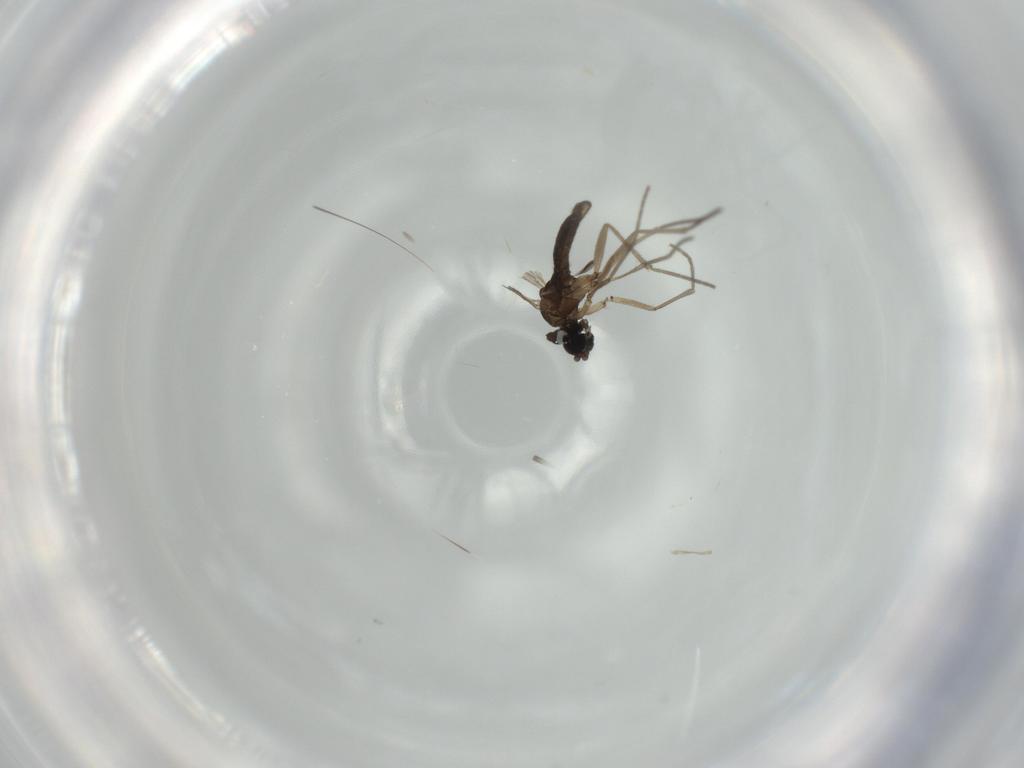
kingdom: Animalia
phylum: Arthropoda
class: Insecta
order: Diptera
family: Sciaridae
